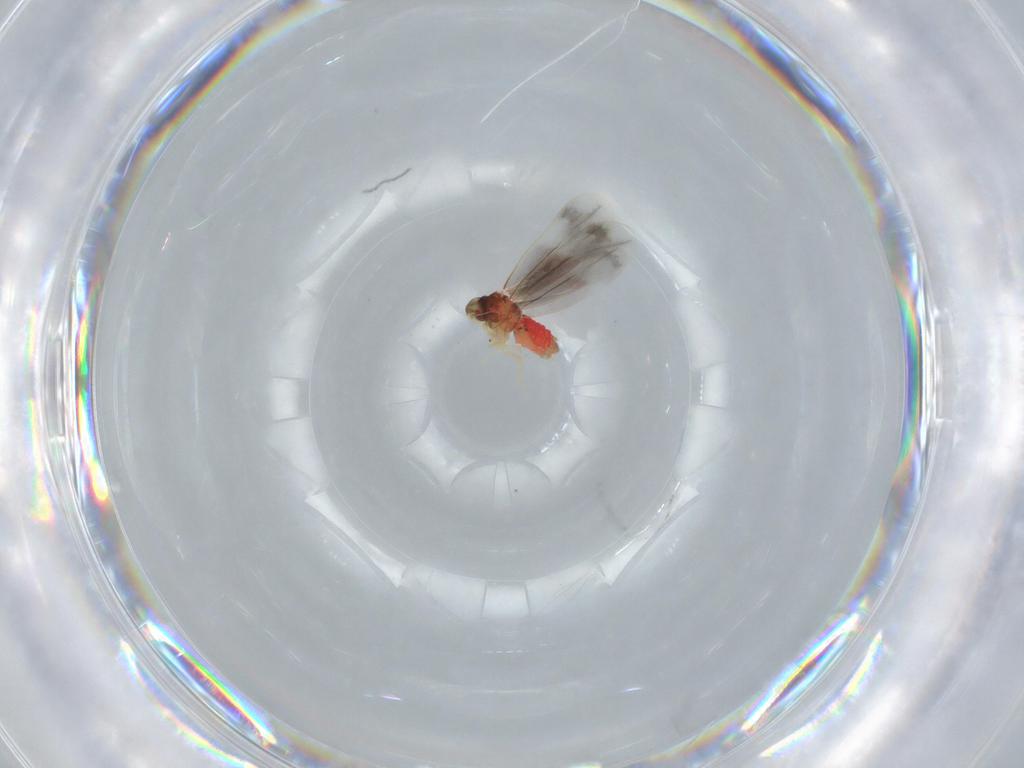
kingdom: Animalia
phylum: Arthropoda
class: Insecta
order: Hemiptera
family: Aleyrodidae
